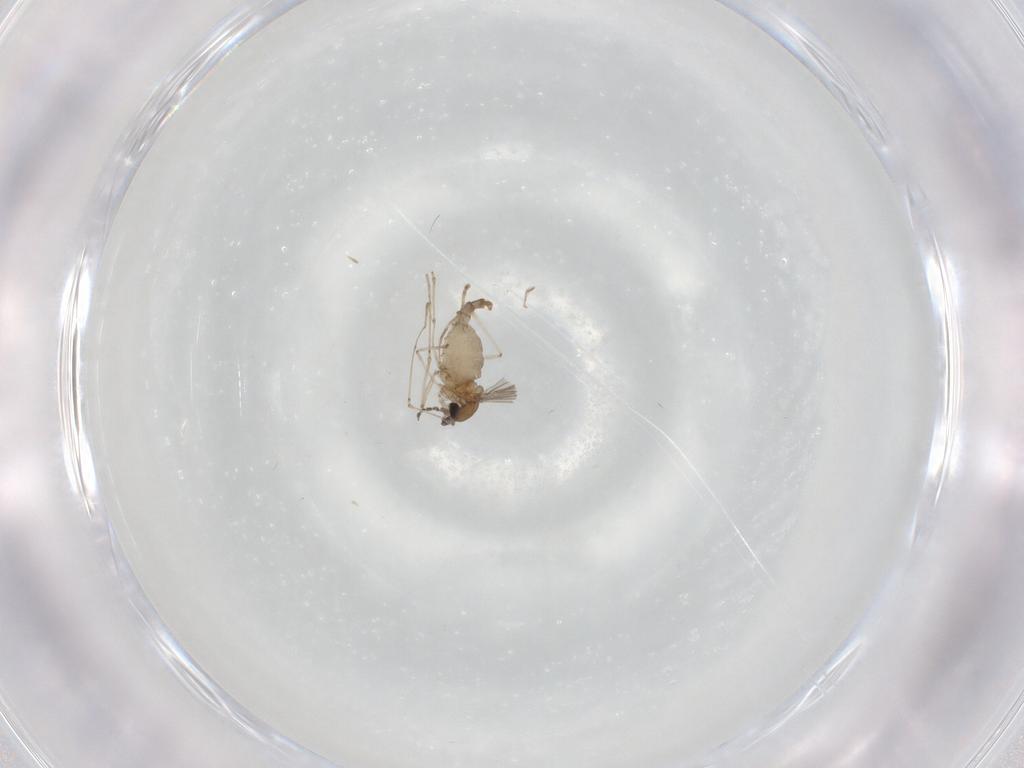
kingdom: Animalia
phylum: Arthropoda
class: Insecta
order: Diptera
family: Cecidomyiidae
